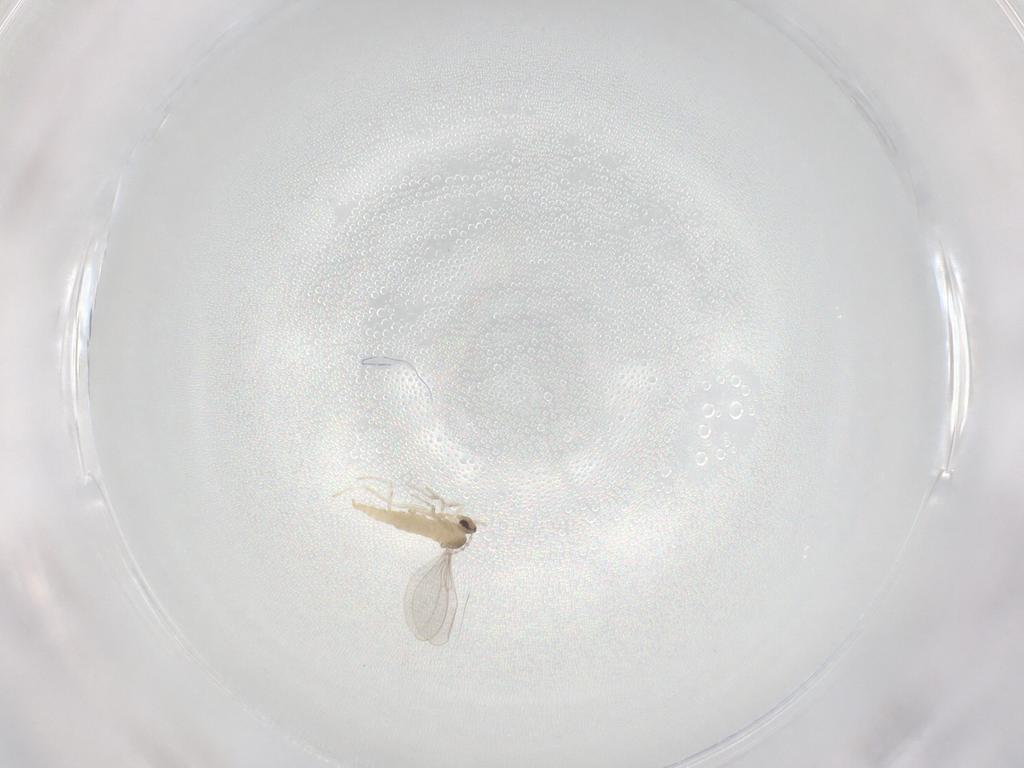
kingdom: Animalia
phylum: Arthropoda
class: Insecta
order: Diptera
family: Cecidomyiidae
